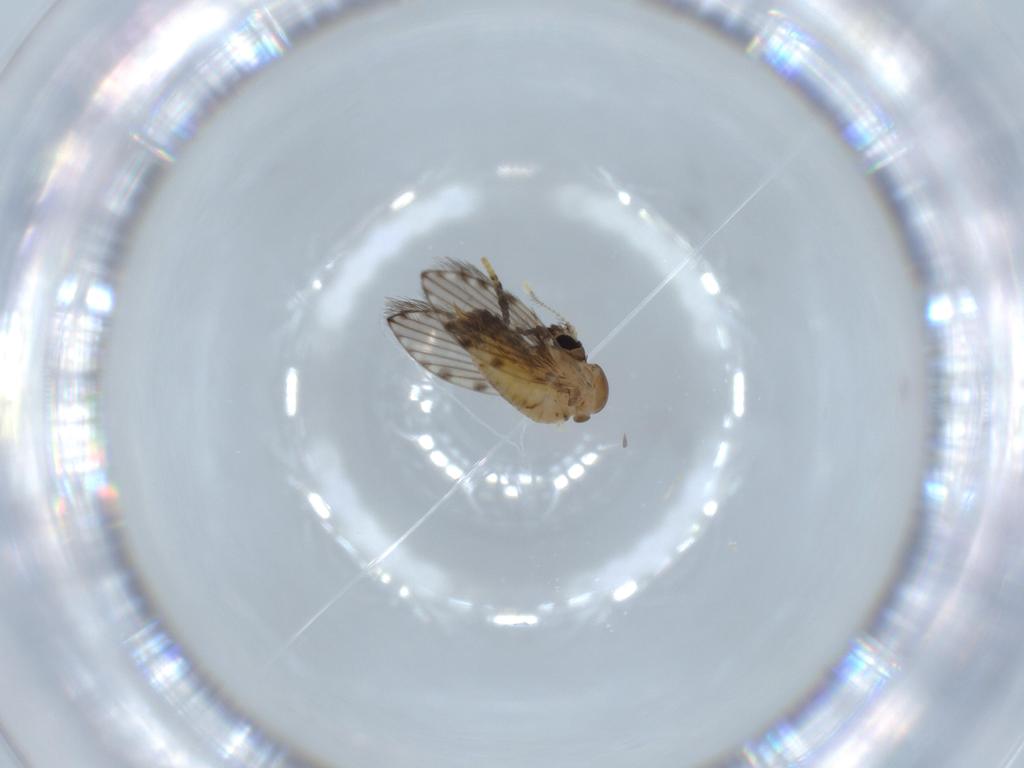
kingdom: Animalia
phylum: Arthropoda
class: Insecta
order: Diptera
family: Psychodidae
